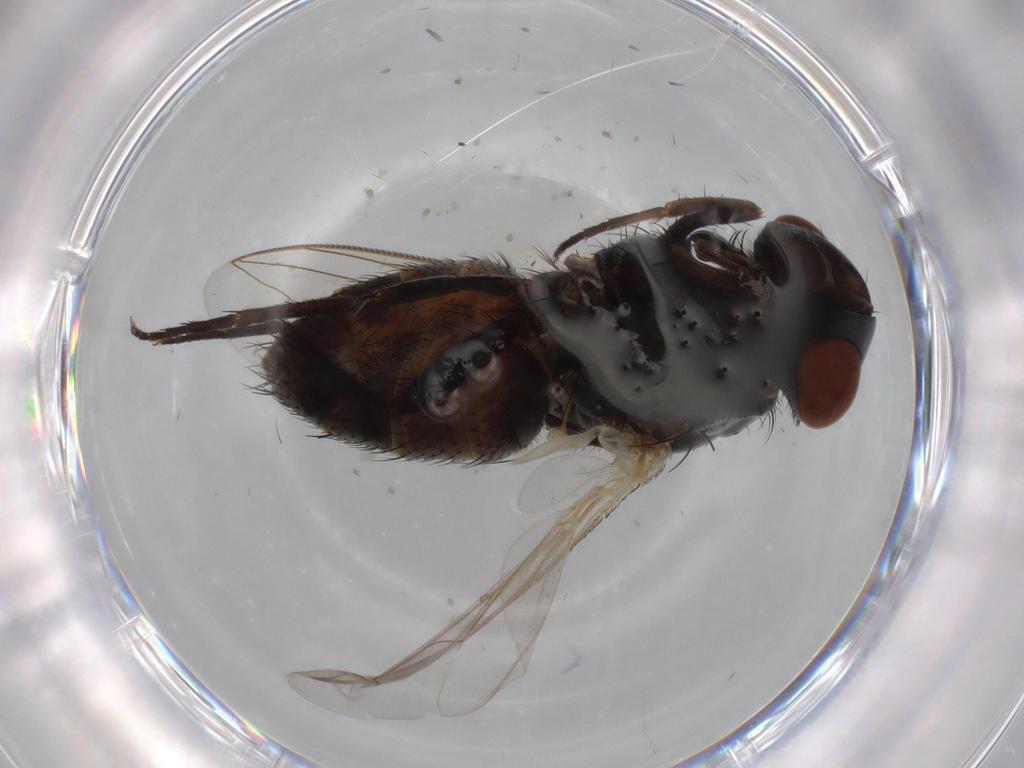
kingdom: Animalia
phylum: Arthropoda
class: Insecta
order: Diptera
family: Sarcophagidae
